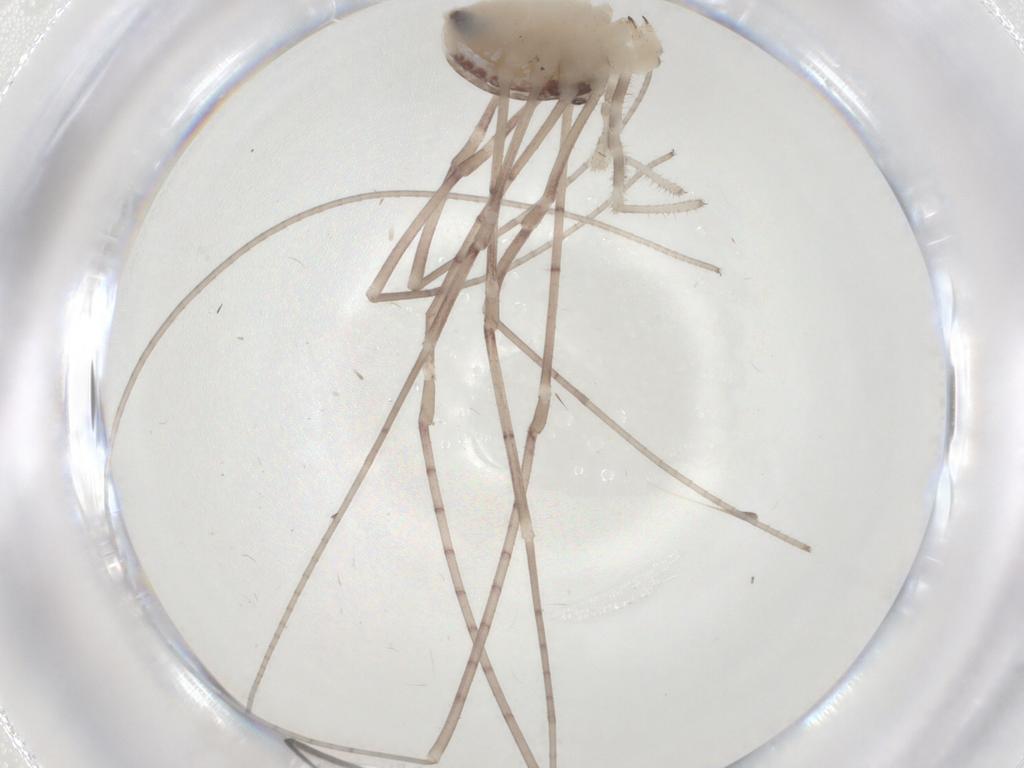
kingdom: Animalia
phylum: Arthropoda
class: Arachnida
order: Opiliones
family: Sclerosomatidae
